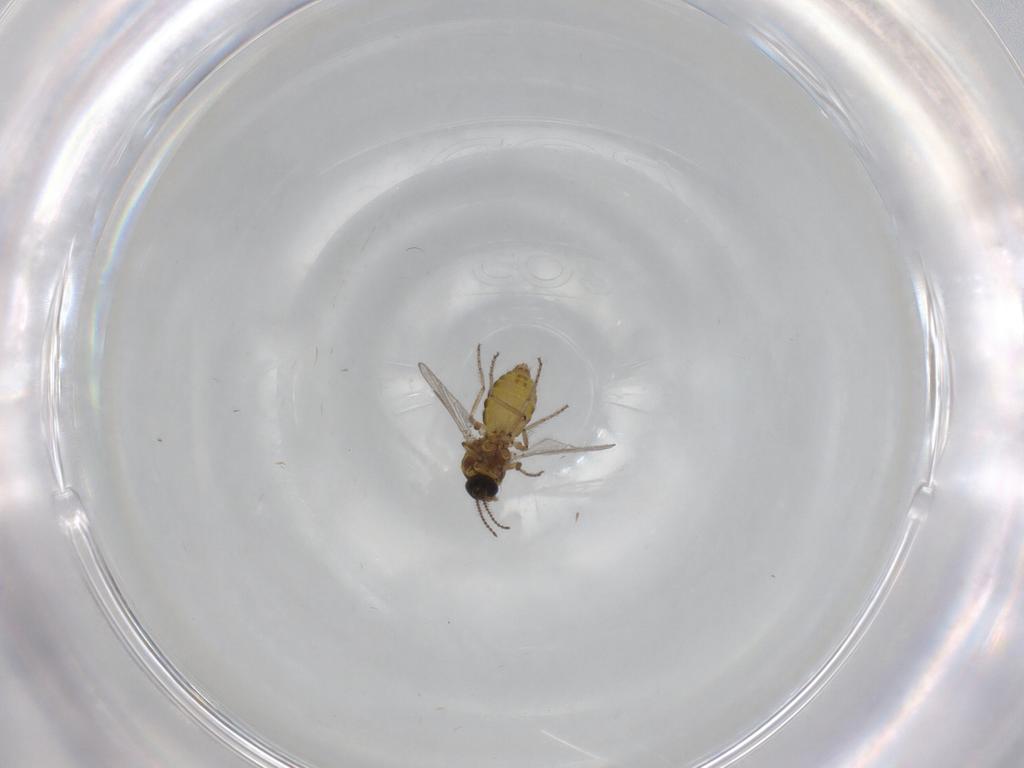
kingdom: Animalia
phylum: Arthropoda
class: Insecta
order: Diptera
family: Ceratopogonidae
